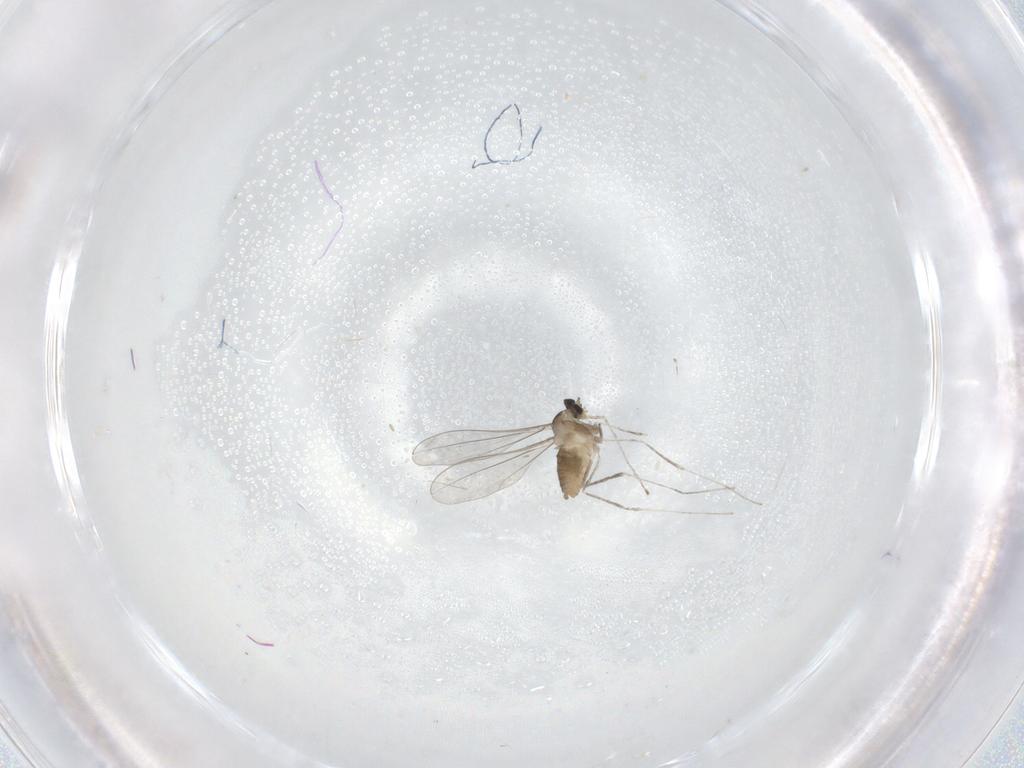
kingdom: Animalia
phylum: Arthropoda
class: Insecta
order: Diptera
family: Cecidomyiidae
